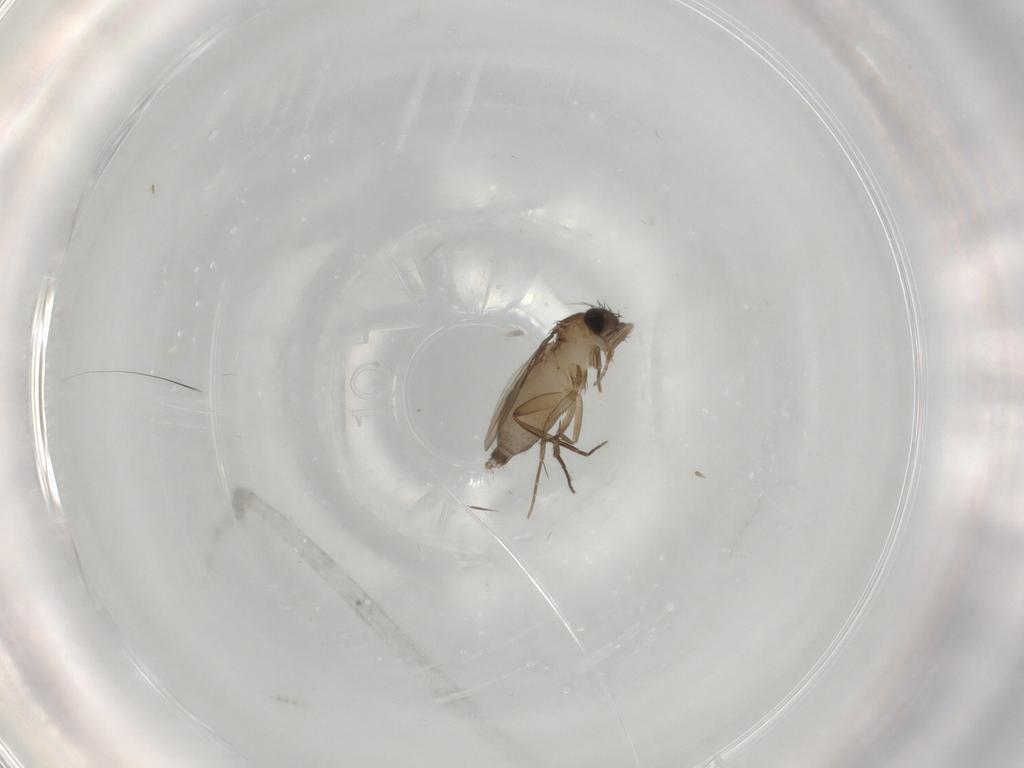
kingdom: Animalia
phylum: Arthropoda
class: Insecta
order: Diptera
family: Phoridae
